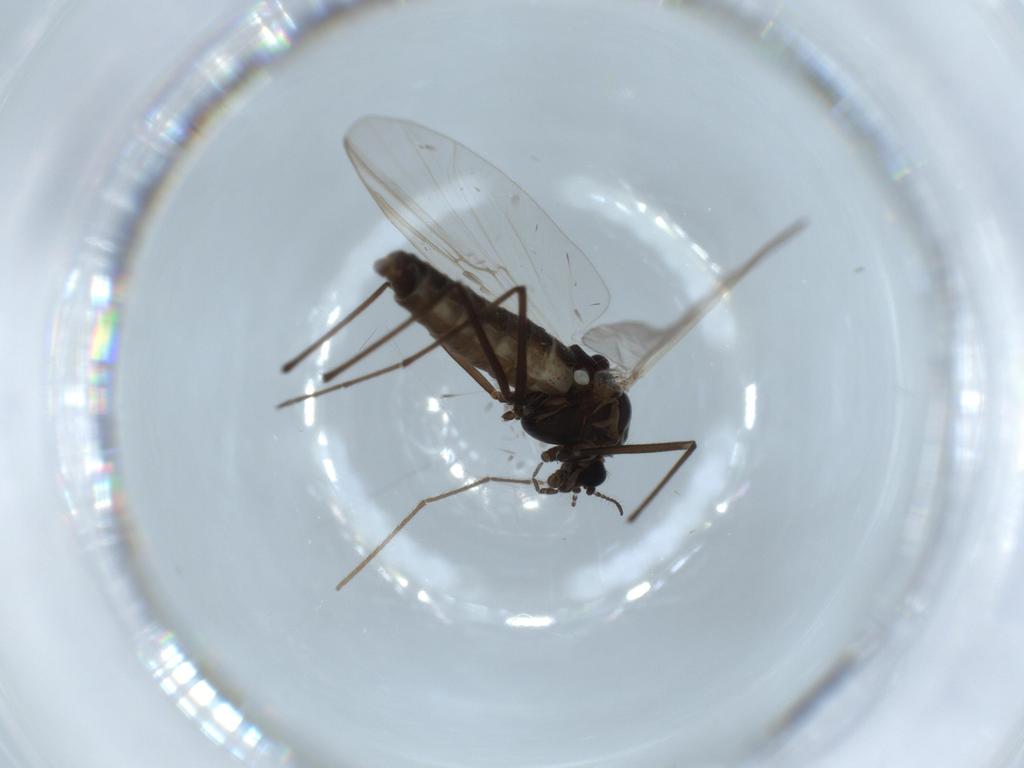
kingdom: Animalia
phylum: Arthropoda
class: Insecta
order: Diptera
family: Chironomidae
